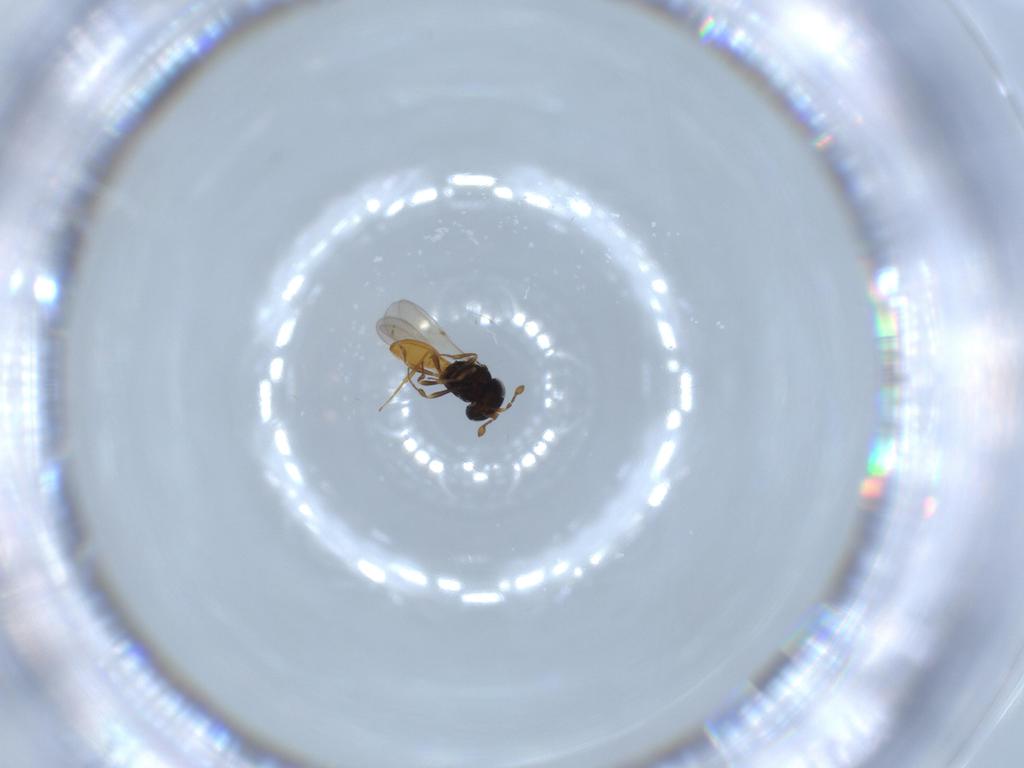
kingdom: Animalia
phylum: Arthropoda
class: Insecta
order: Hymenoptera
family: Scelionidae
